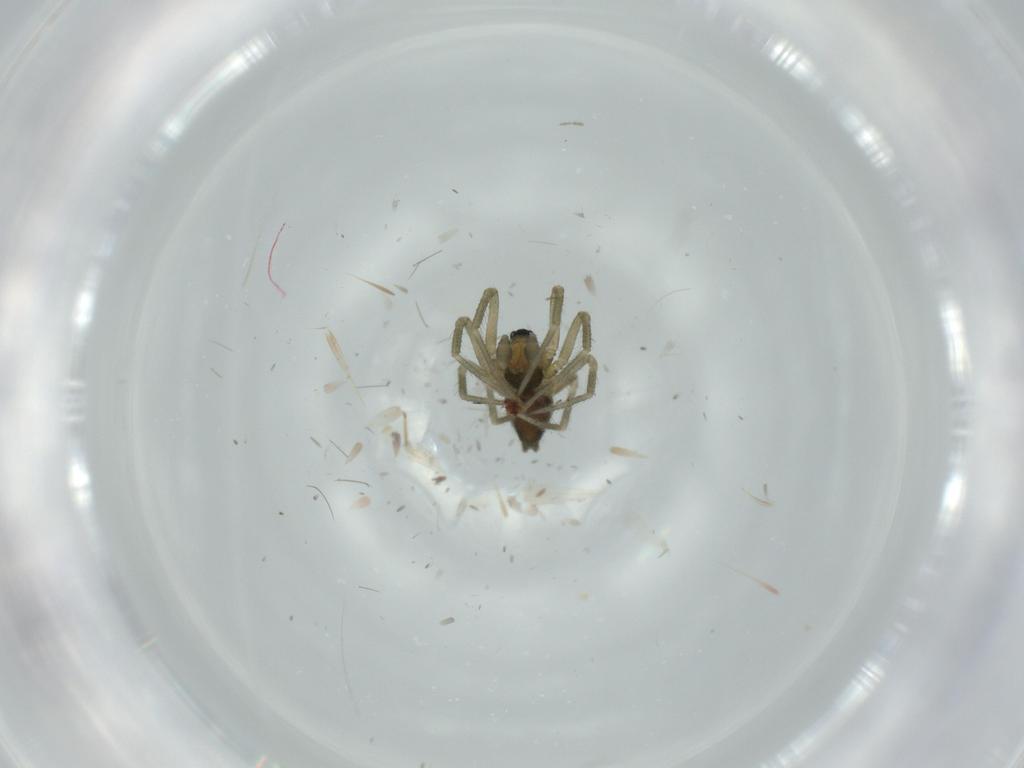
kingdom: Animalia
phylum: Arthropoda
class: Arachnida
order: Araneae
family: Linyphiidae
